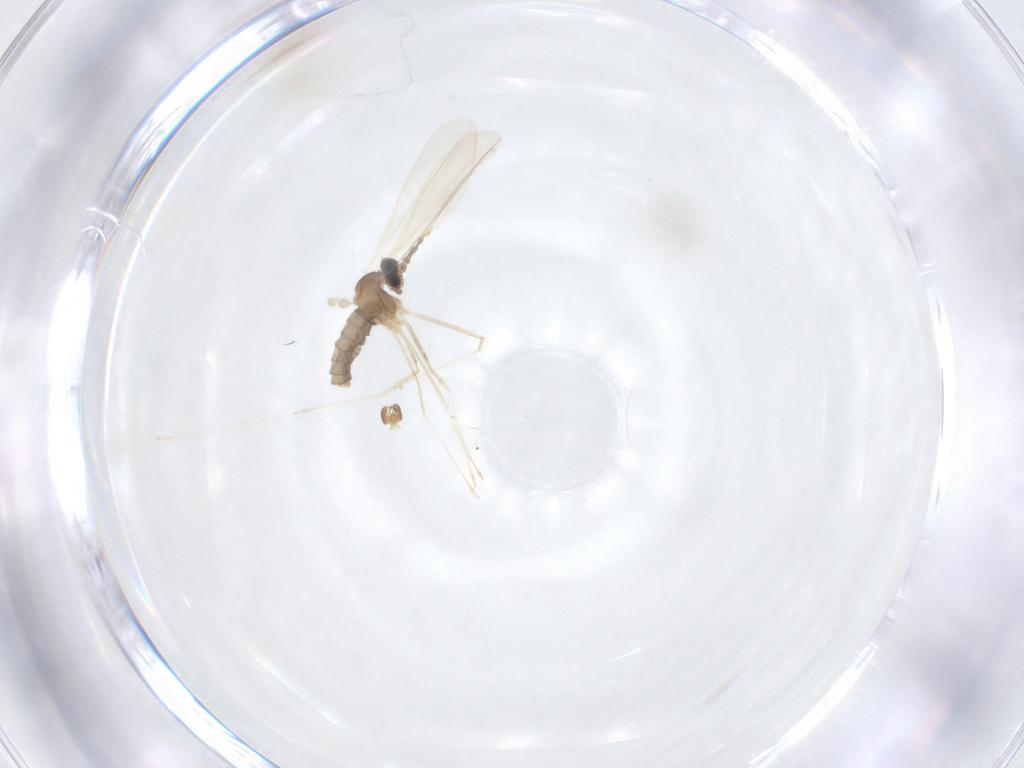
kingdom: Animalia
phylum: Arthropoda
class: Insecta
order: Diptera
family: Cecidomyiidae
